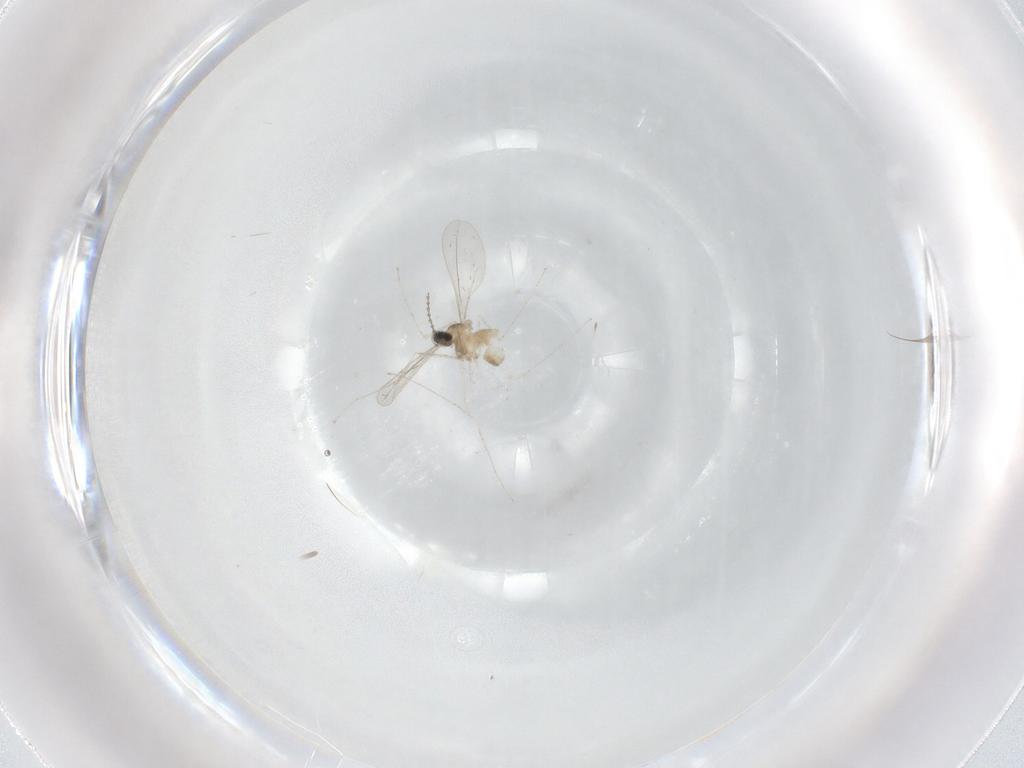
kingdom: Animalia
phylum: Arthropoda
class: Insecta
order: Diptera
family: Cecidomyiidae
